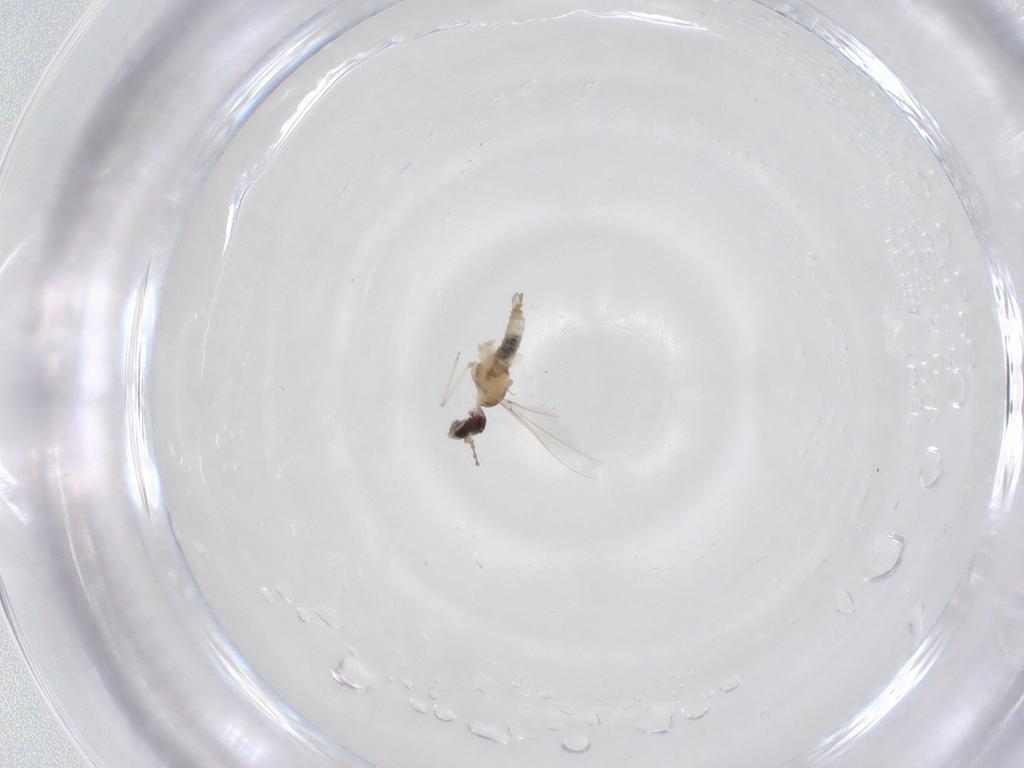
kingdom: Animalia
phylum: Arthropoda
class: Insecta
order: Diptera
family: Cecidomyiidae
